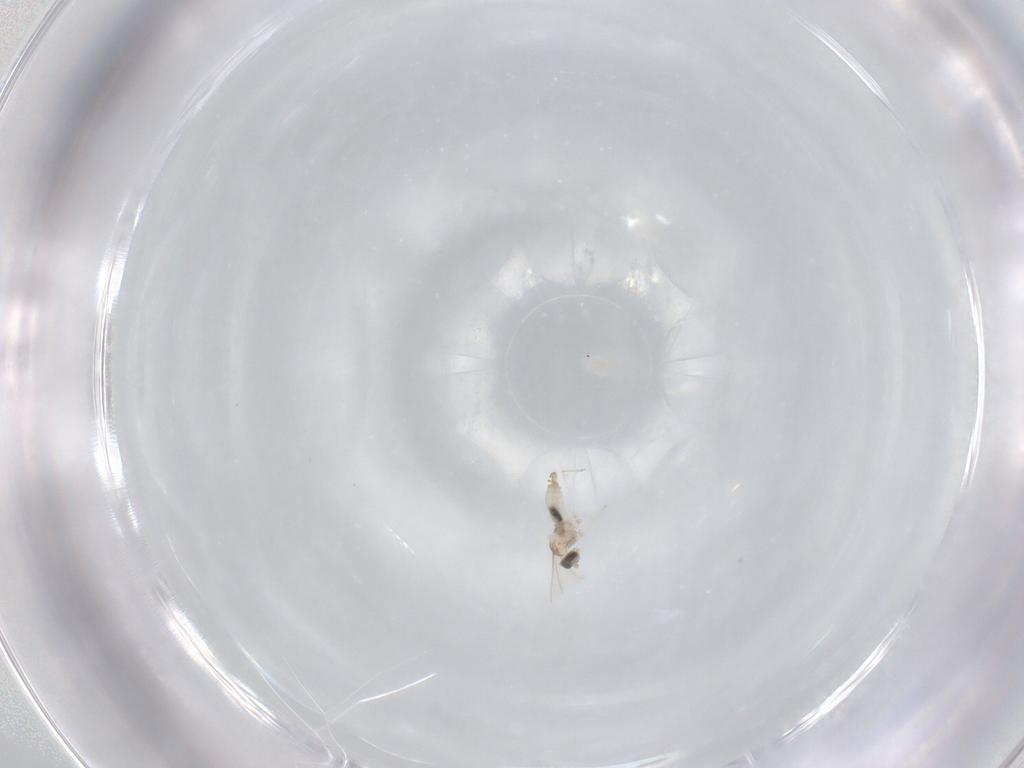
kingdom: Animalia
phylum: Arthropoda
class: Insecta
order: Diptera
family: Cecidomyiidae
